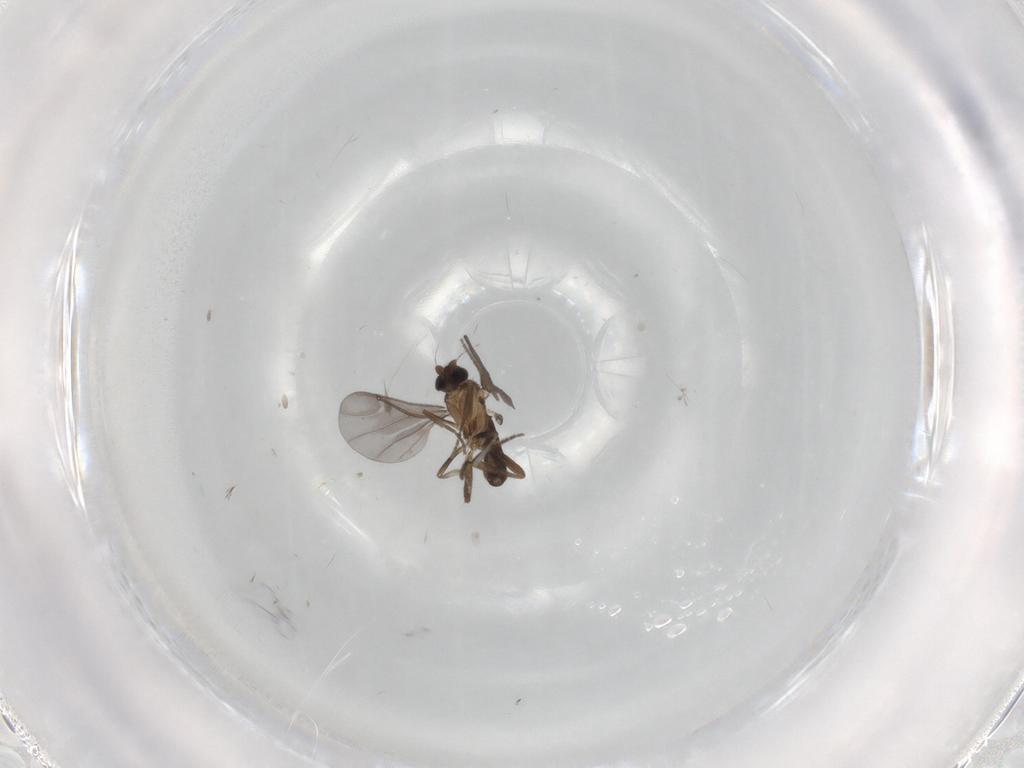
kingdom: Animalia
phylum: Arthropoda
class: Insecta
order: Diptera
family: Phoridae
